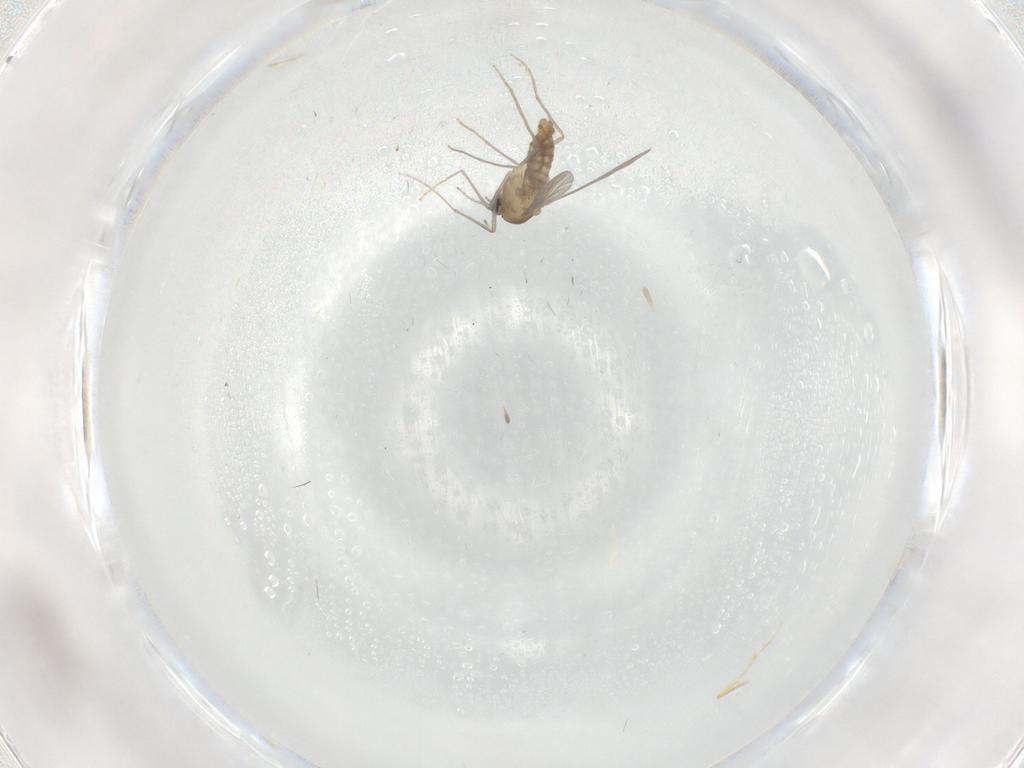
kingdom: Animalia
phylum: Arthropoda
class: Insecta
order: Diptera
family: Chironomidae
